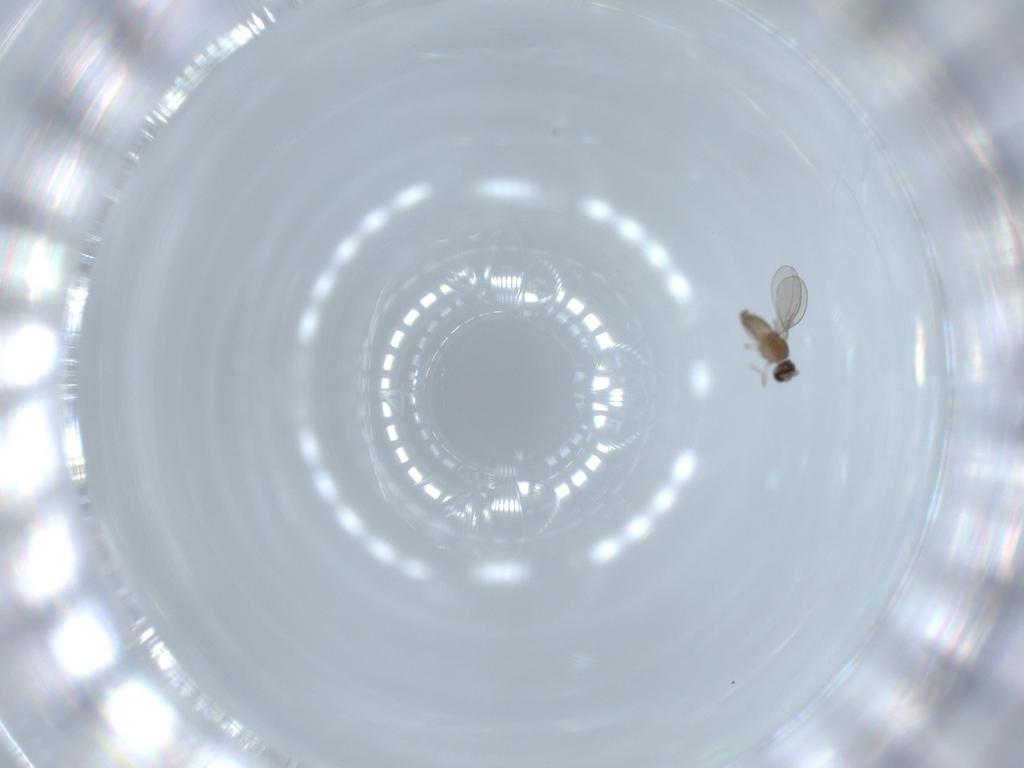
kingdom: Animalia
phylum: Arthropoda
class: Insecta
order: Diptera
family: Cecidomyiidae
